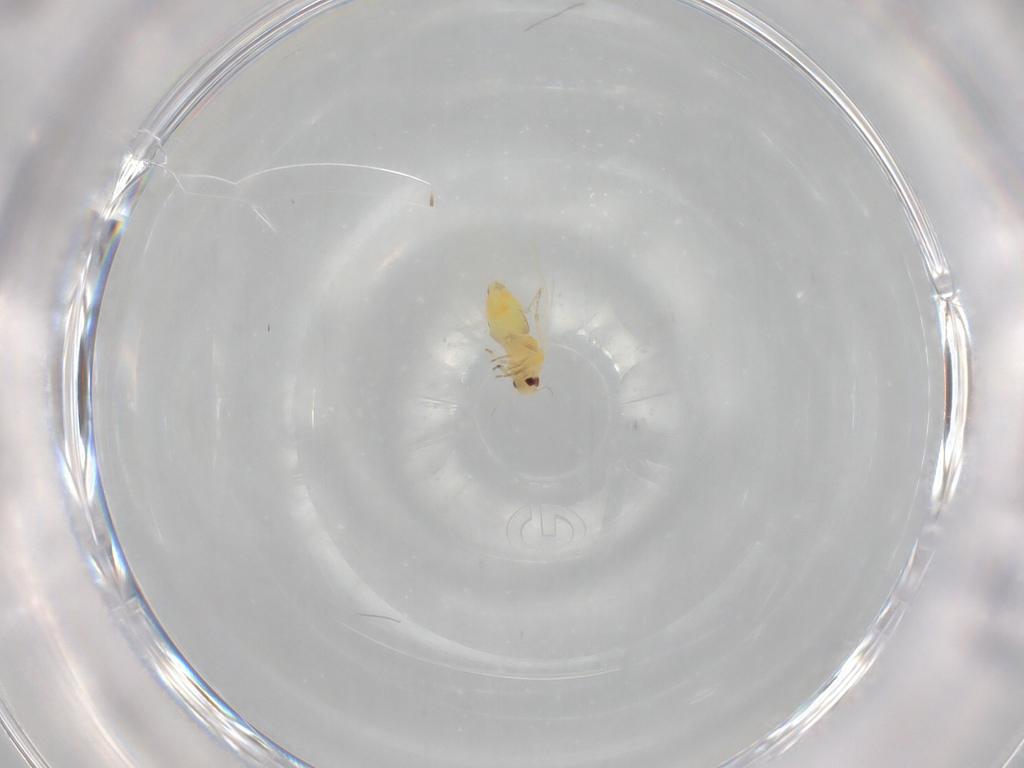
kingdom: Animalia
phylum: Arthropoda
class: Insecta
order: Hemiptera
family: Aleyrodidae
